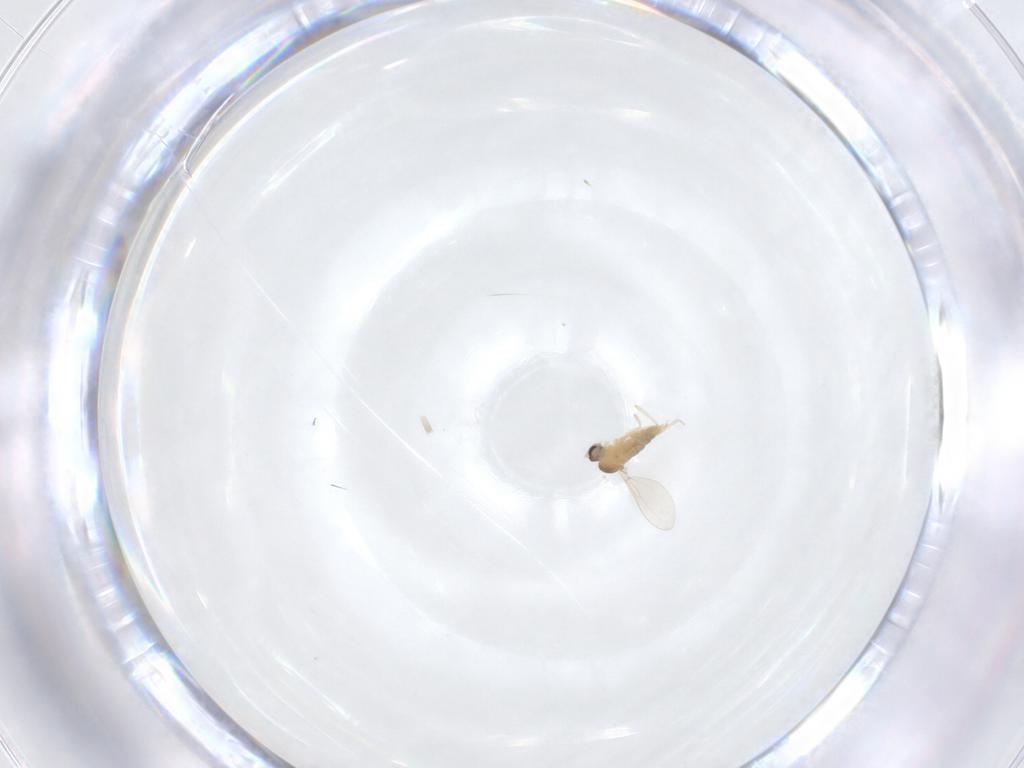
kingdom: Animalia
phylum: Arthropoda
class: Insecta
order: Diptera
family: Cecidomyiidae
